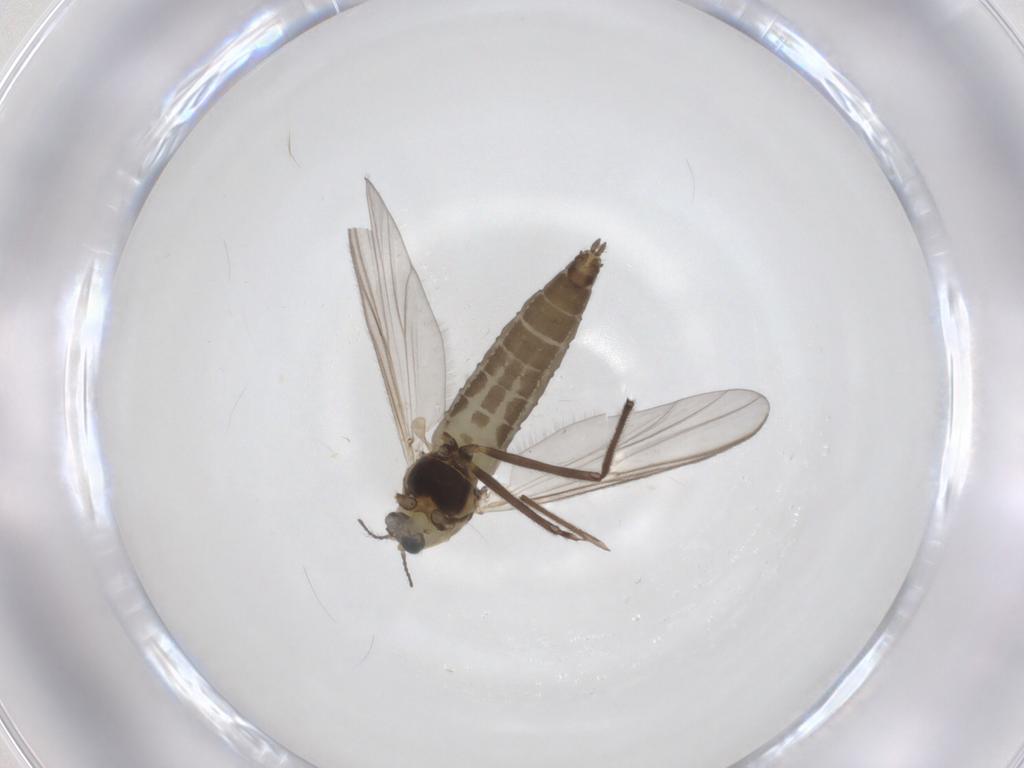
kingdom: Animalia
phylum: Arthropoda
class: Insecta
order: Diptera
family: Chironomidae
